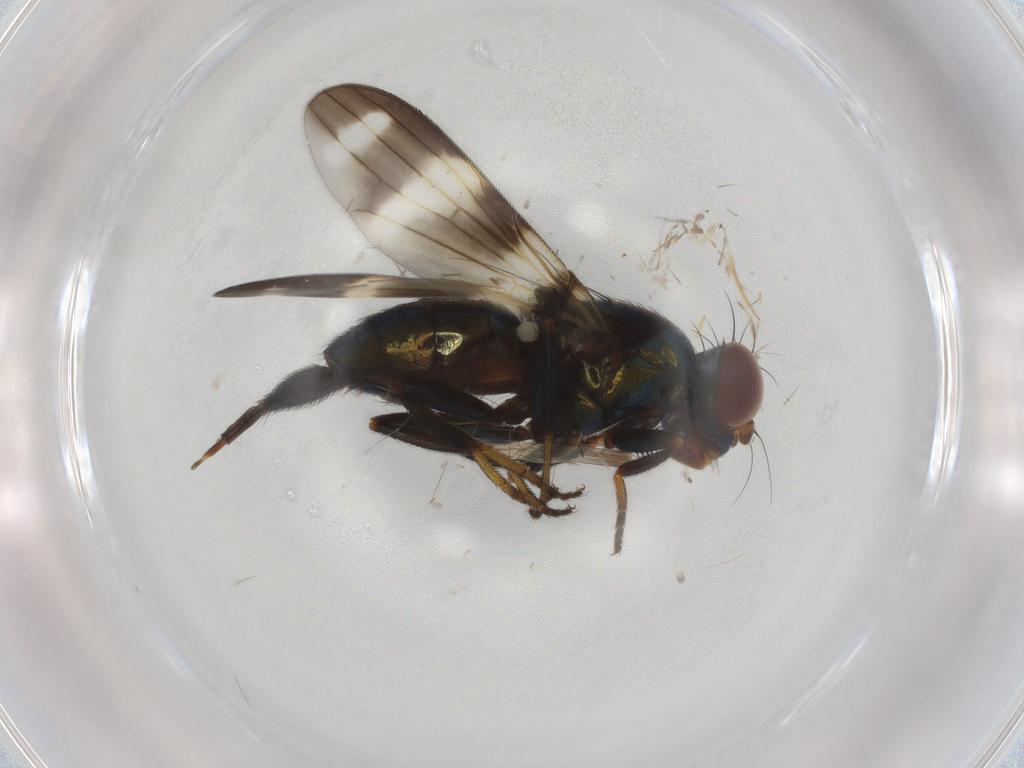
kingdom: Animalia
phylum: Arthropoda
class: Insecta
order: Diptera
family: Ulidiidae
